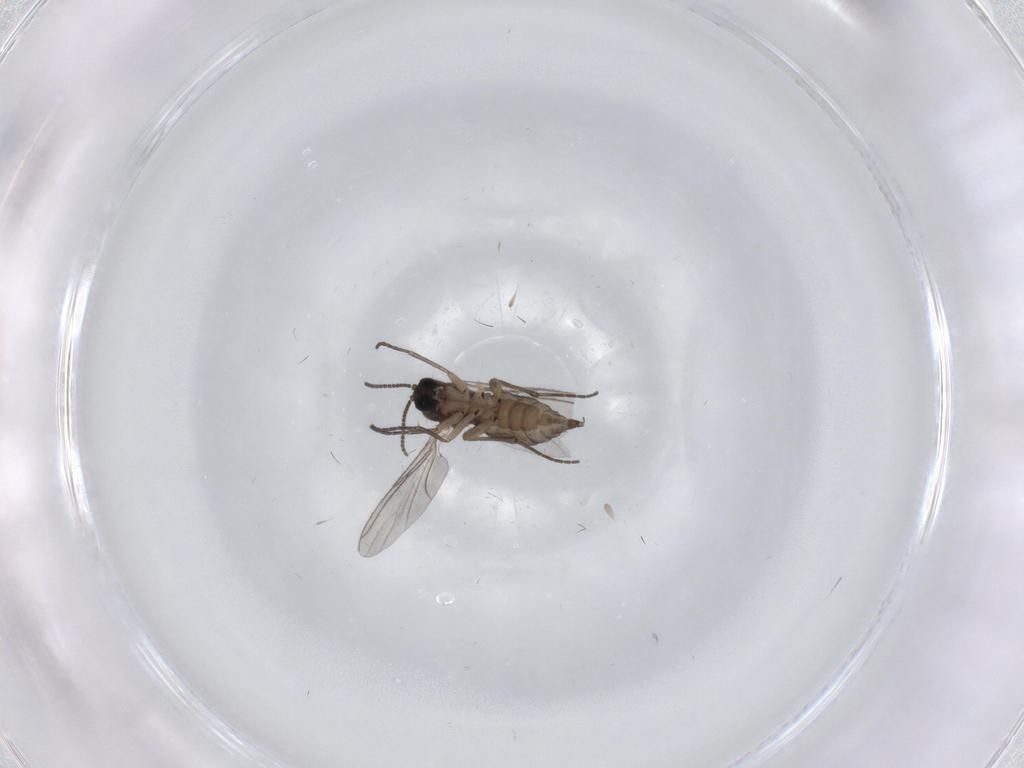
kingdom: Animalia
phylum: Arthropoda
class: Insecta
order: Diptera
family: Sciaridae
